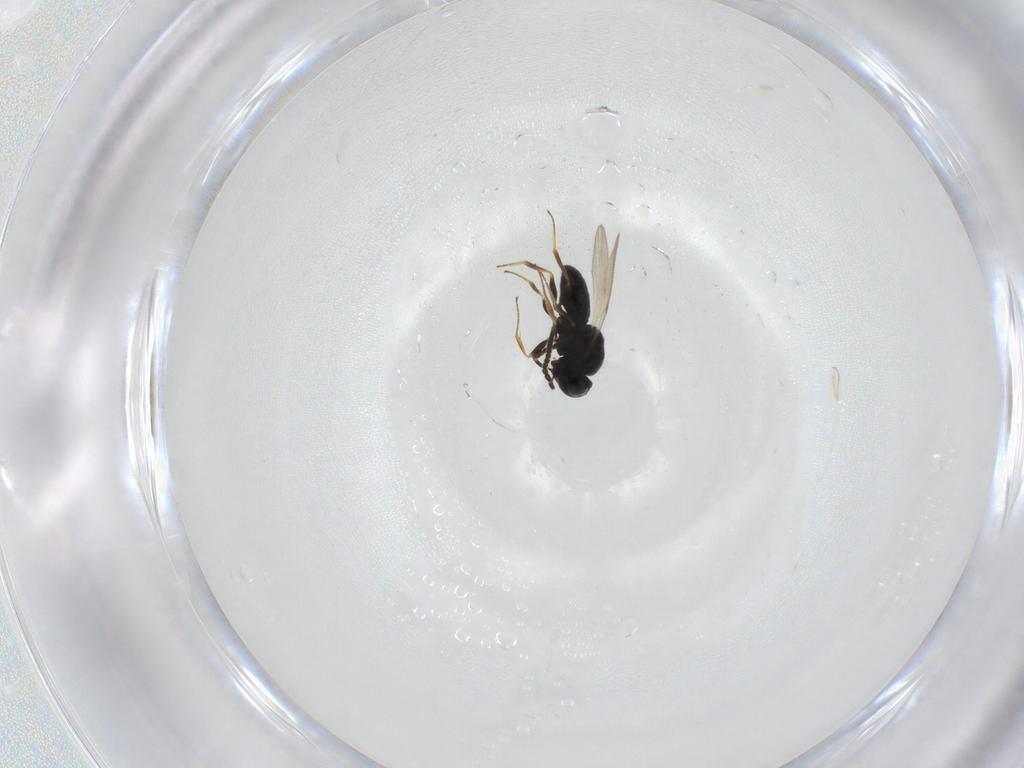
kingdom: Animalia
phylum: Arthropoda
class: Insecta
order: Hymenoptera
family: Scelionidae
